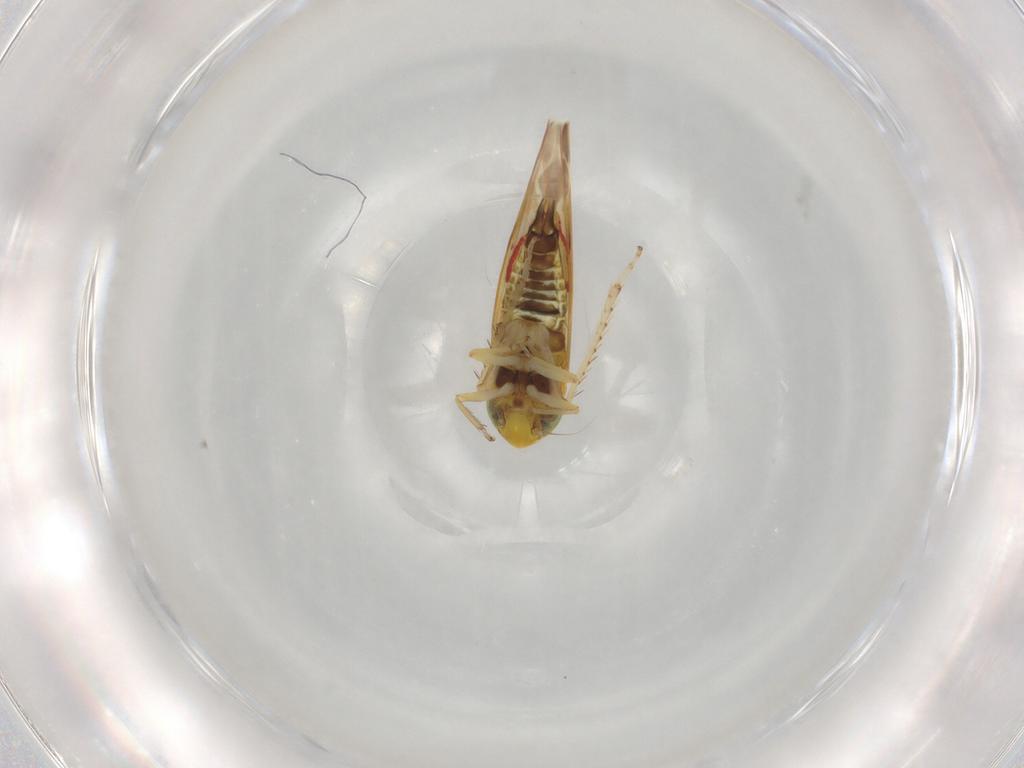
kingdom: Animalia
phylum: Arthropoda
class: Insecta
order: Hemiptera
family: Cicadellidae
